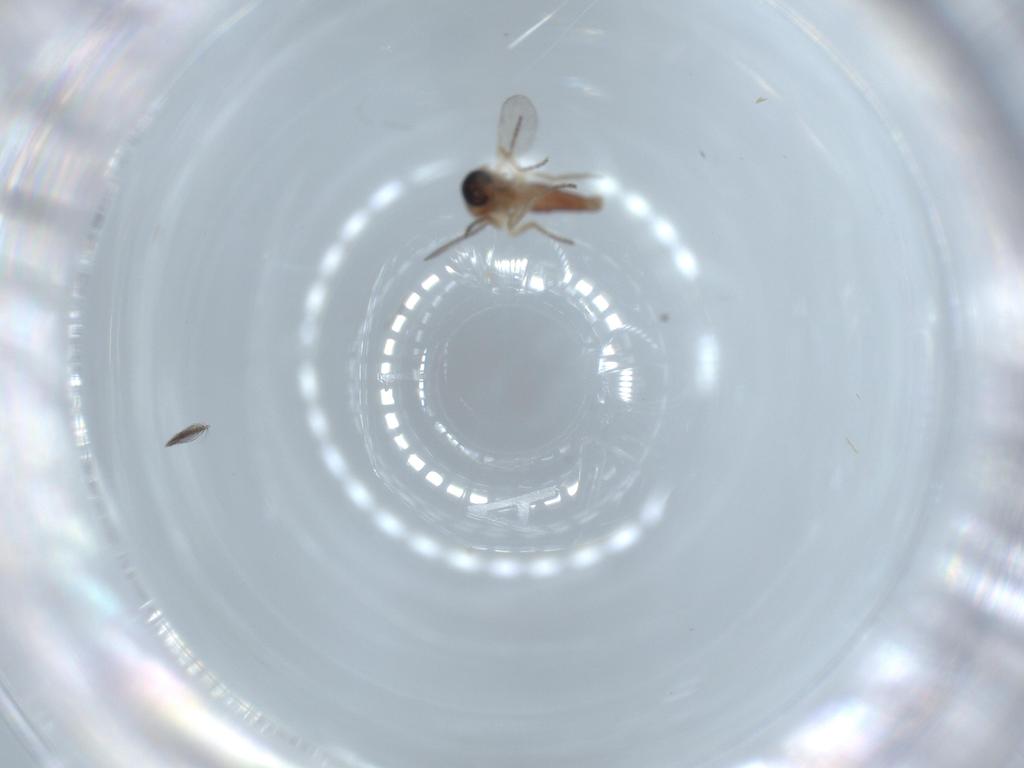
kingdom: Animalia
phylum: Arthropoda
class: Insecta
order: Diptera
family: Ceratopogonidae
